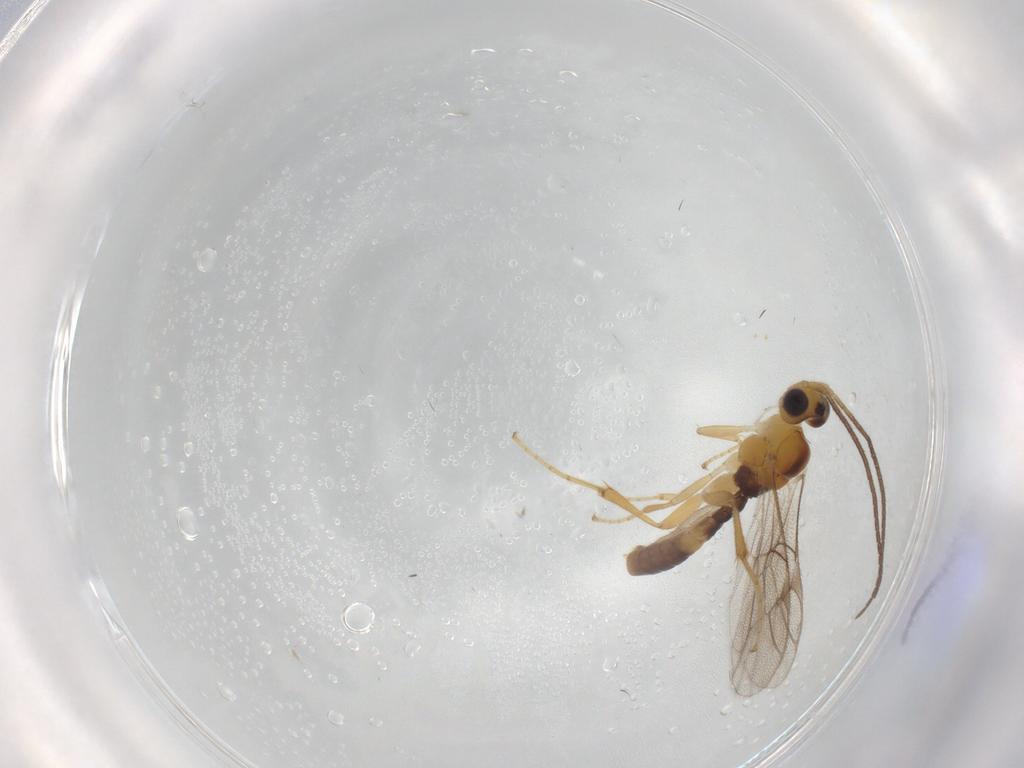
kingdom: Animalia
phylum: Arthropoda
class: Insecta
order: Hymenoptera
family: Ichneumonidae
